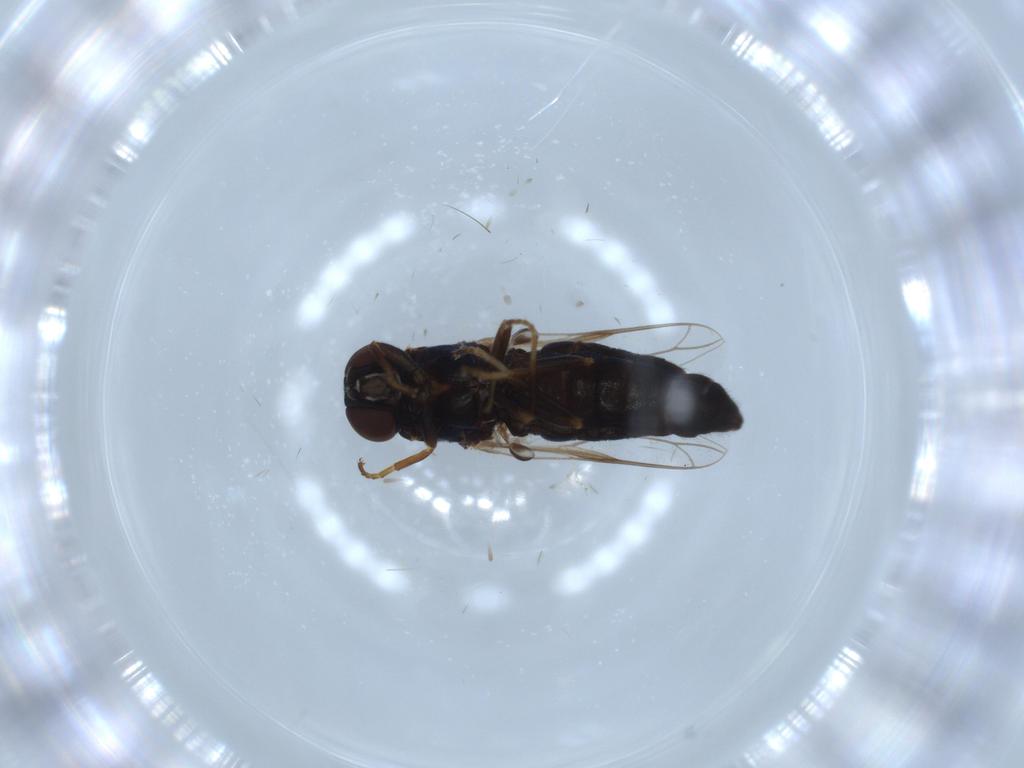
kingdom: Animalia
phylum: Arthropoda
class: Insecta
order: Diptera
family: Scenopinidae
